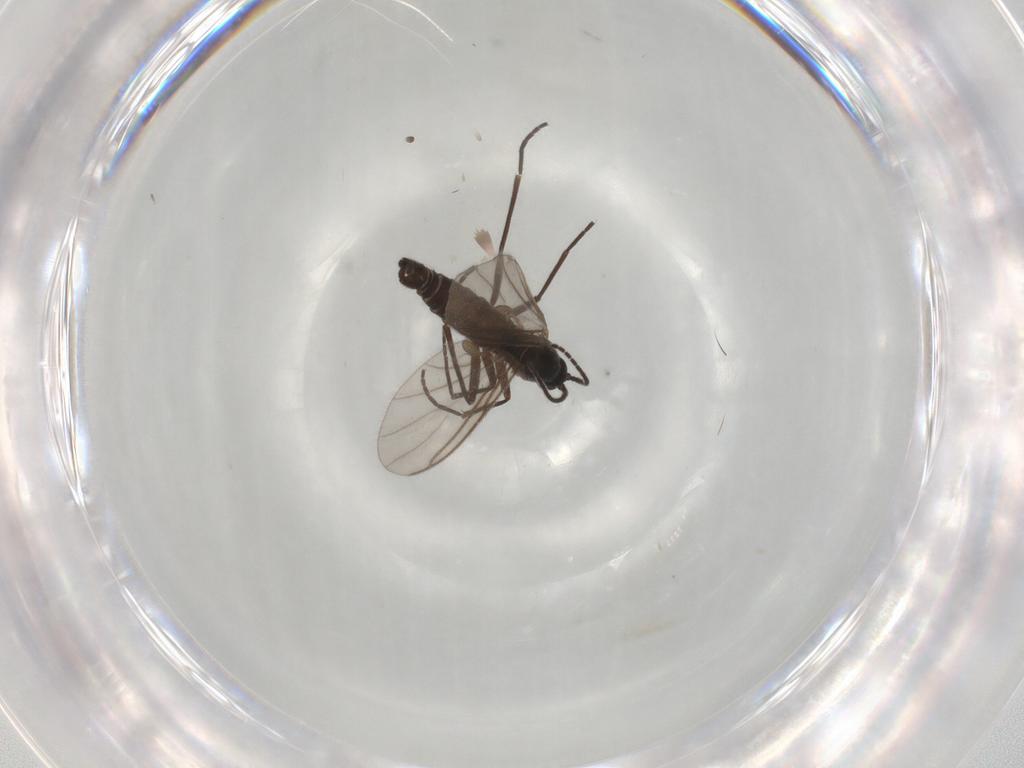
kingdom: Animalia
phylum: Arthropoda
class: Insecta
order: Diptera
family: Sciaridae
